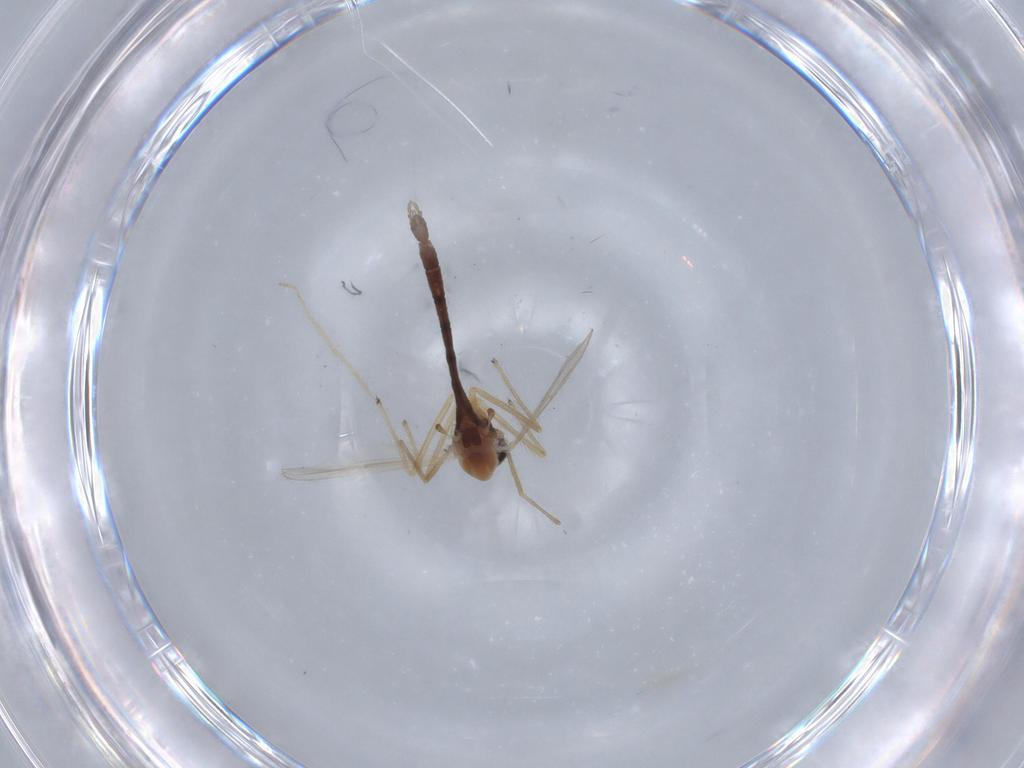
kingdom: Animalia
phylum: Arthropoda
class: Insecta
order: Diptera
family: Chironomidae
